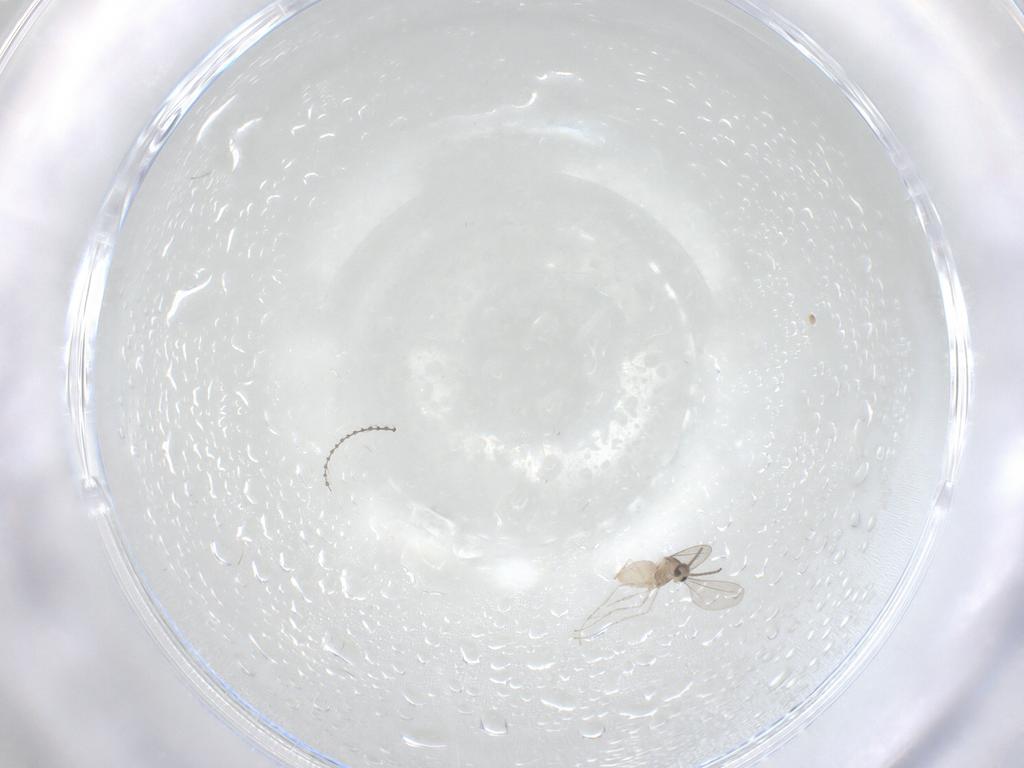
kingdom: Animalia
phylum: Arthropoda
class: Insecta
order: Diptera
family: Cecidomyiidae
